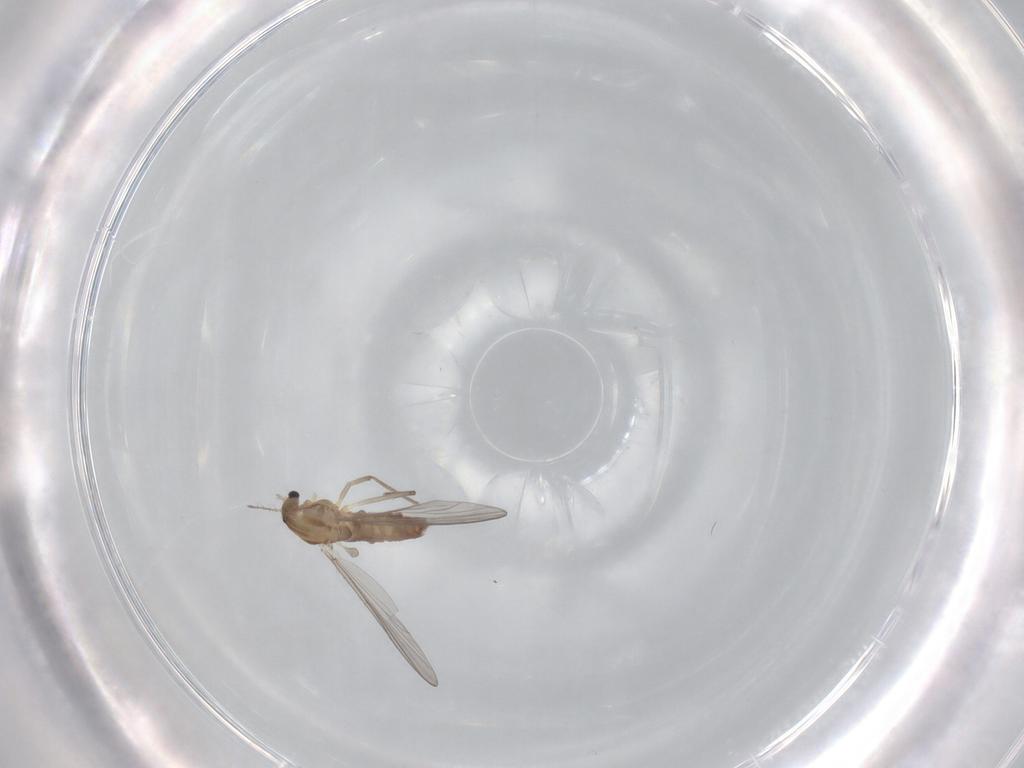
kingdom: Animalia
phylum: Arthropoda
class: Insecta
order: Diptera
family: Chironomidae
